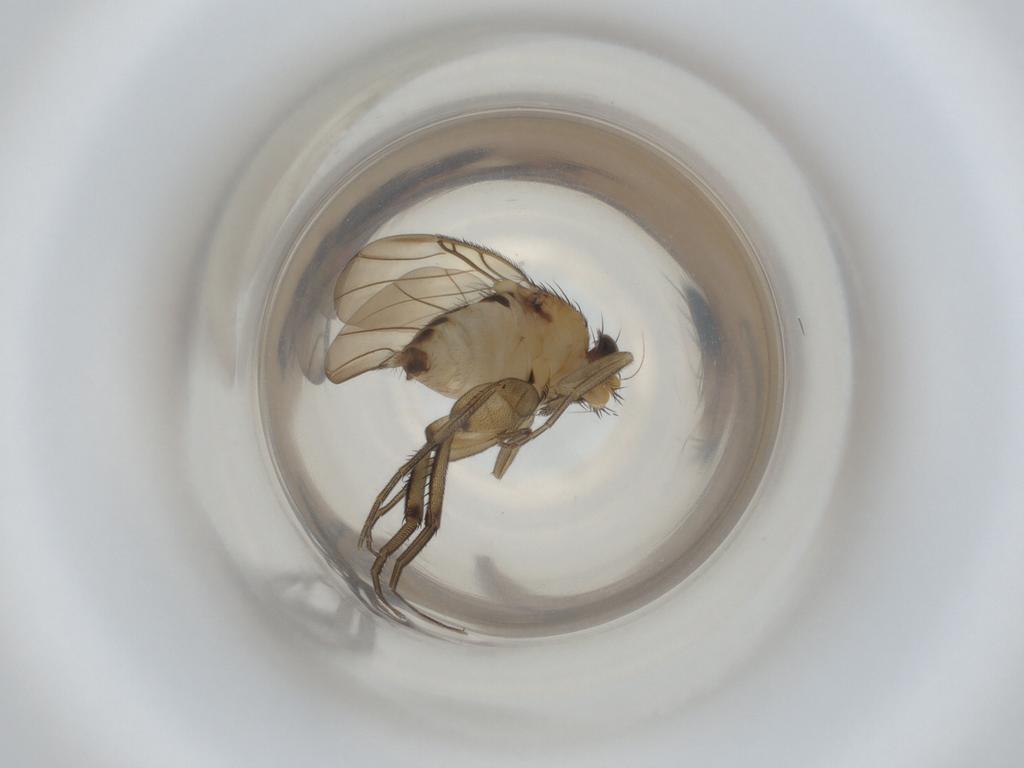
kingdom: Animalia
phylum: Arthropoda
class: Insecta
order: Diptera
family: Phoridae
